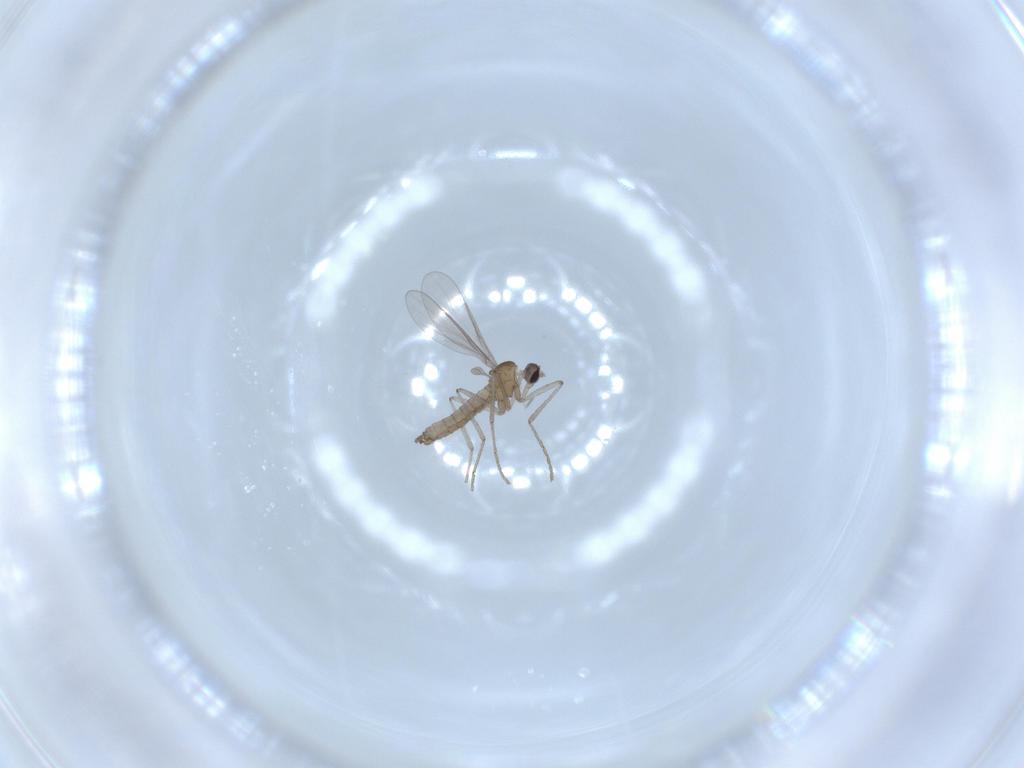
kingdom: Animalia
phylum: Arthropoda
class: Insecta
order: Diptera
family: Cecidomyiidae
